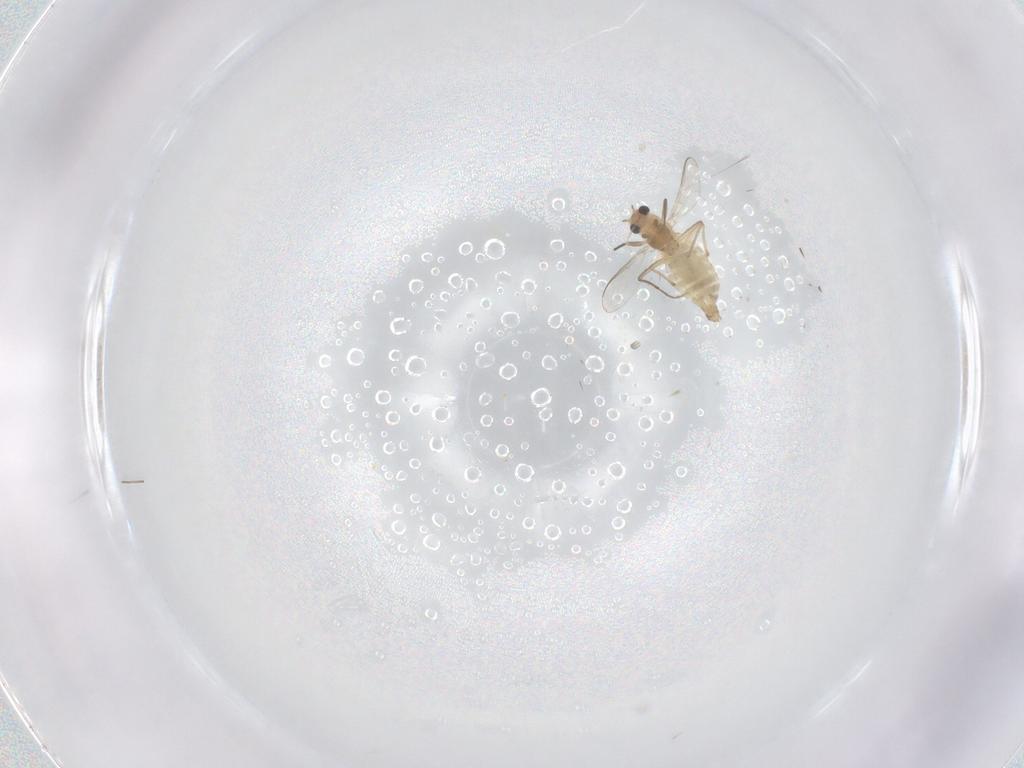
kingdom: Animalia
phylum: Arthropoda
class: Insecta
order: Diptera
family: Chironomidae
